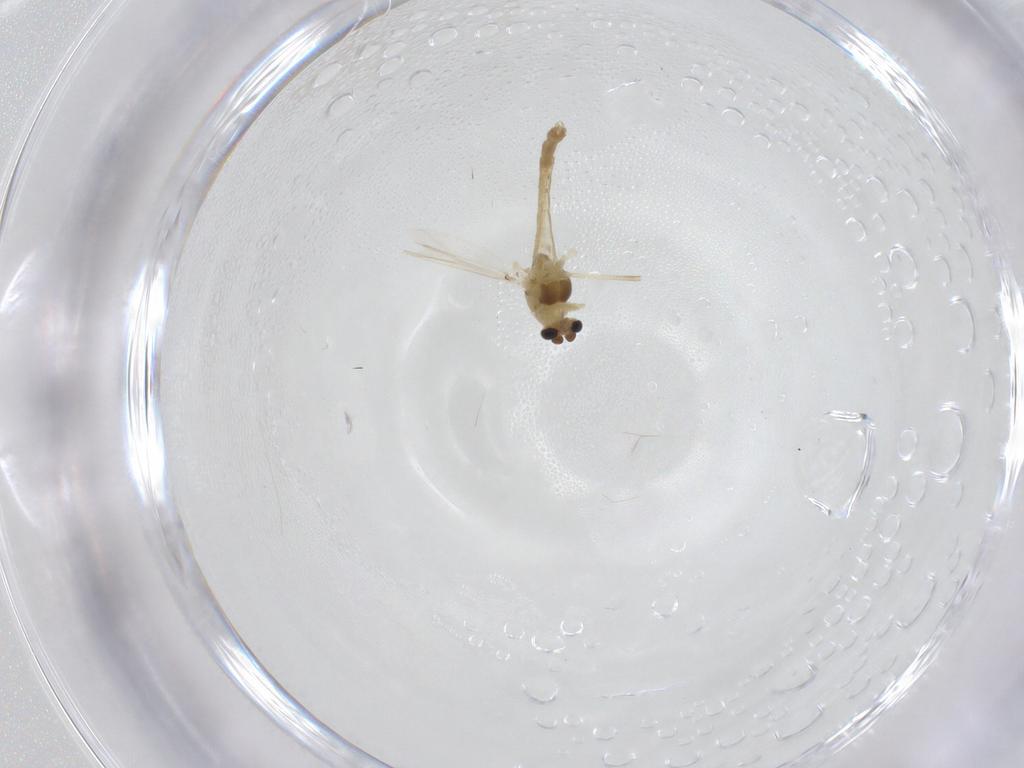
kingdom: Animalia
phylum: Arthropoda
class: Insecta
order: Diptera
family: Chironomidae
